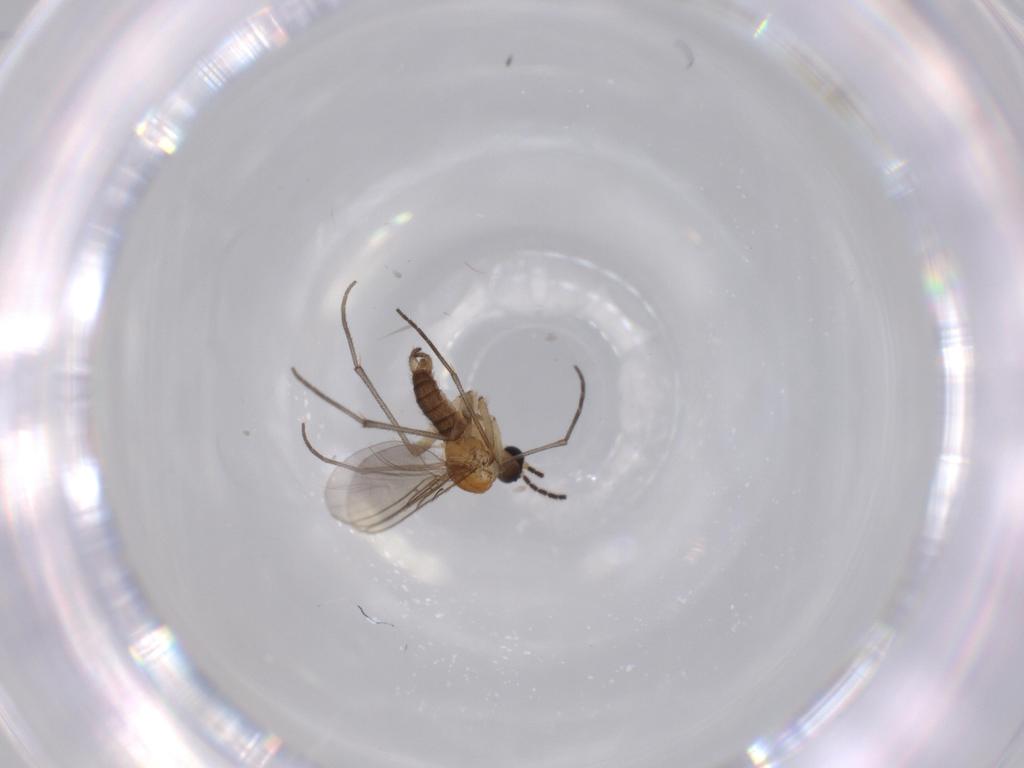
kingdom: Animalia
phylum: Arthropoda
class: Insecta
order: Diptera
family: Sciaridae
